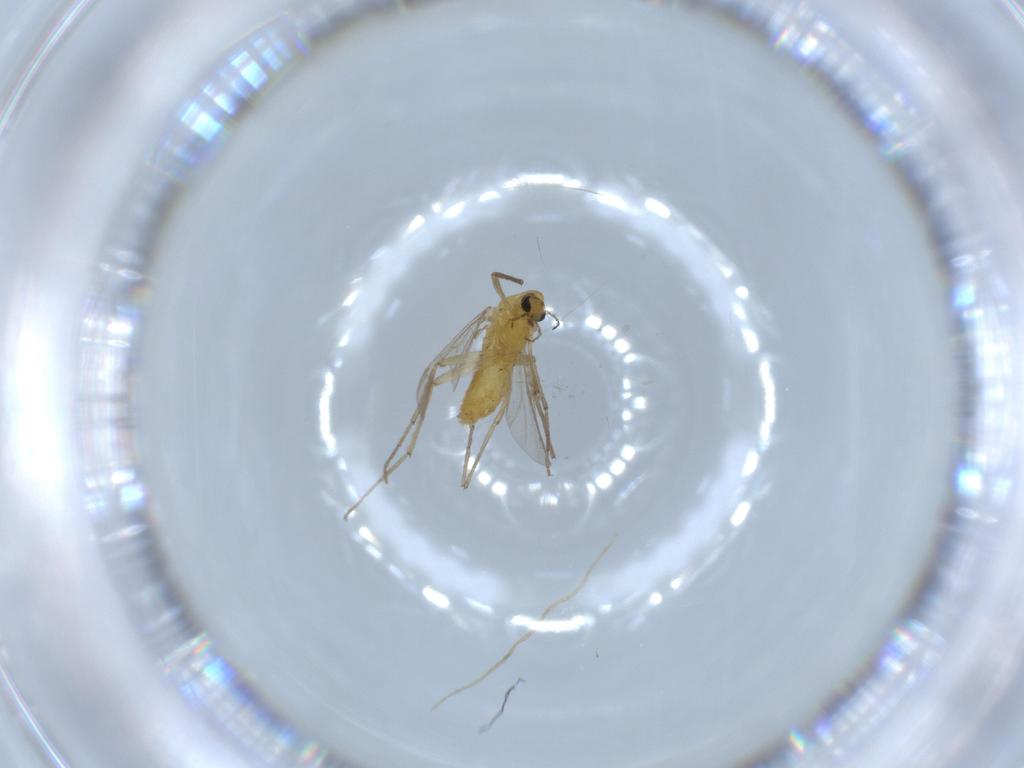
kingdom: Animalia
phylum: Arthropoda
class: Insecta
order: Diptera
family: Chironomidae
